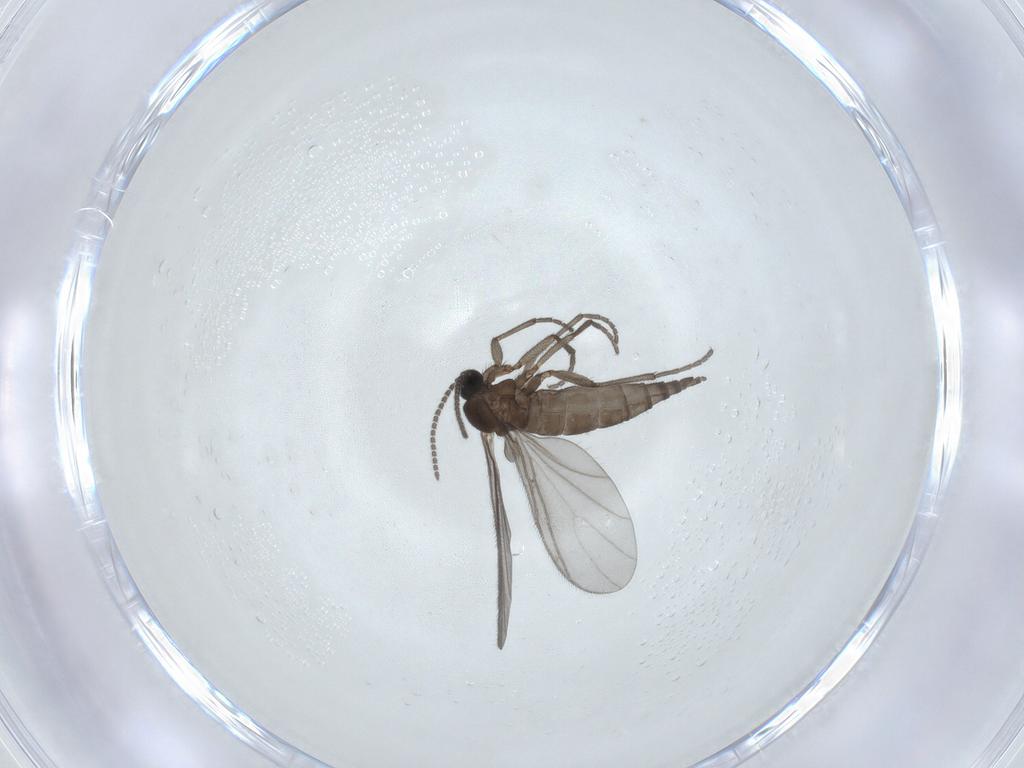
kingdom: Animalia
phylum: Arthropoda
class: Insecta
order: Diptera
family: Sciaridae
